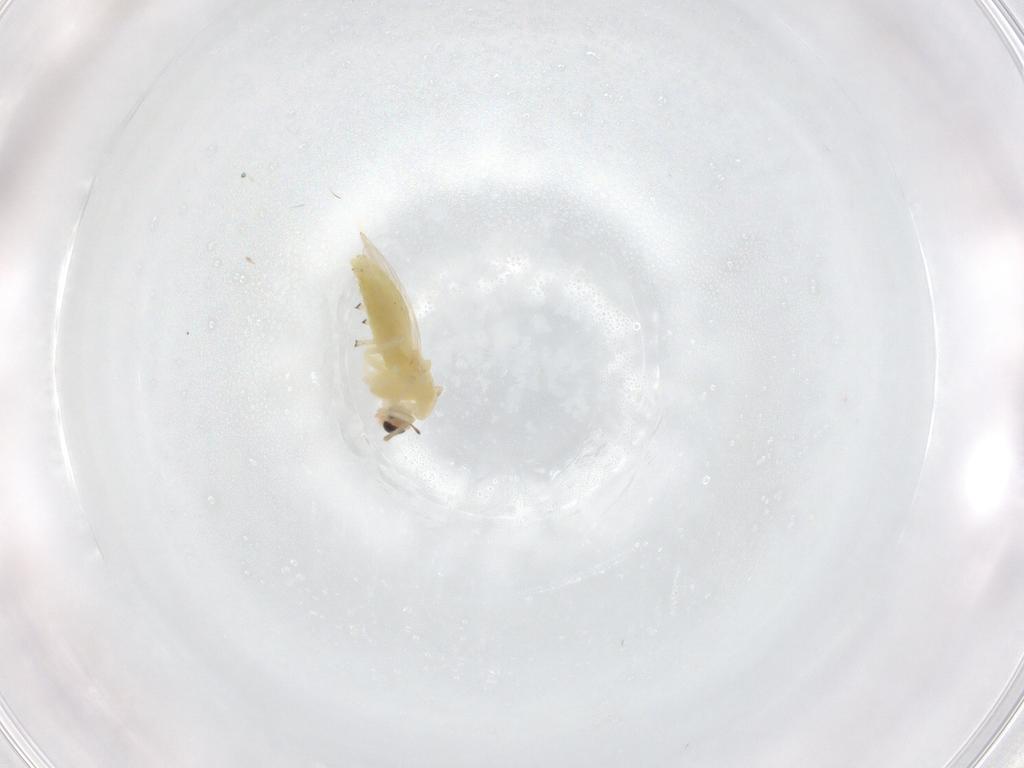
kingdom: Animalia
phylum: Arthropoda
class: Insecta
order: Diptera
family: Chironomidae
